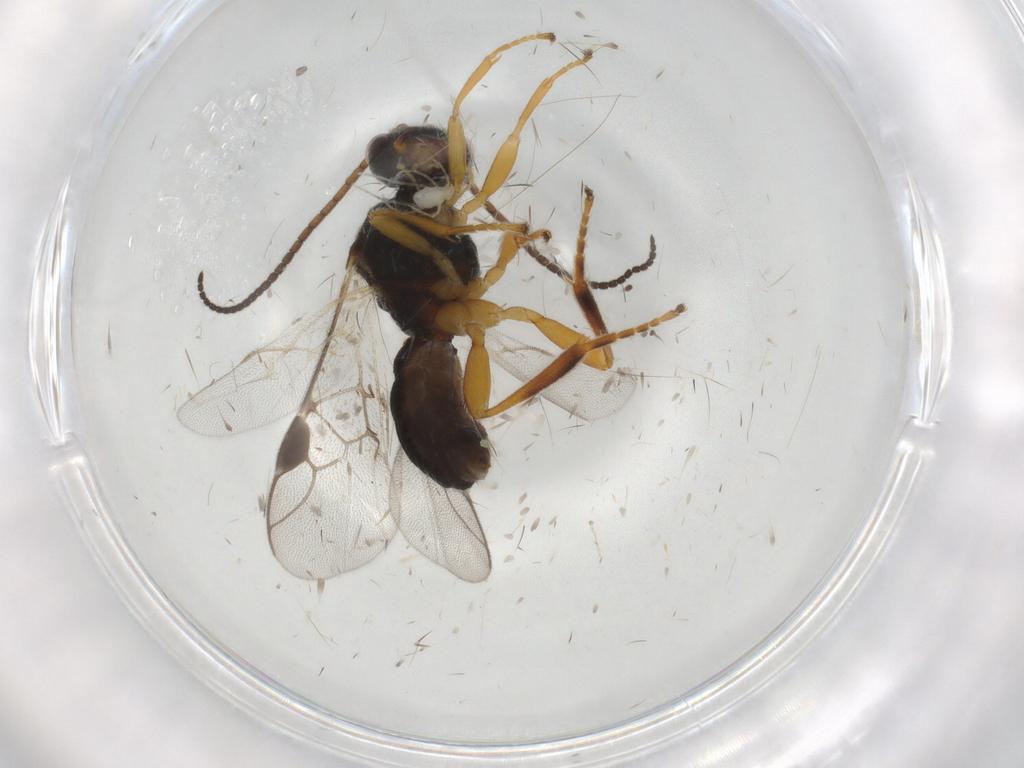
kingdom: Animalia
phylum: Arthropoda
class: Insecta
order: Hymenoptera
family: Braconidae
